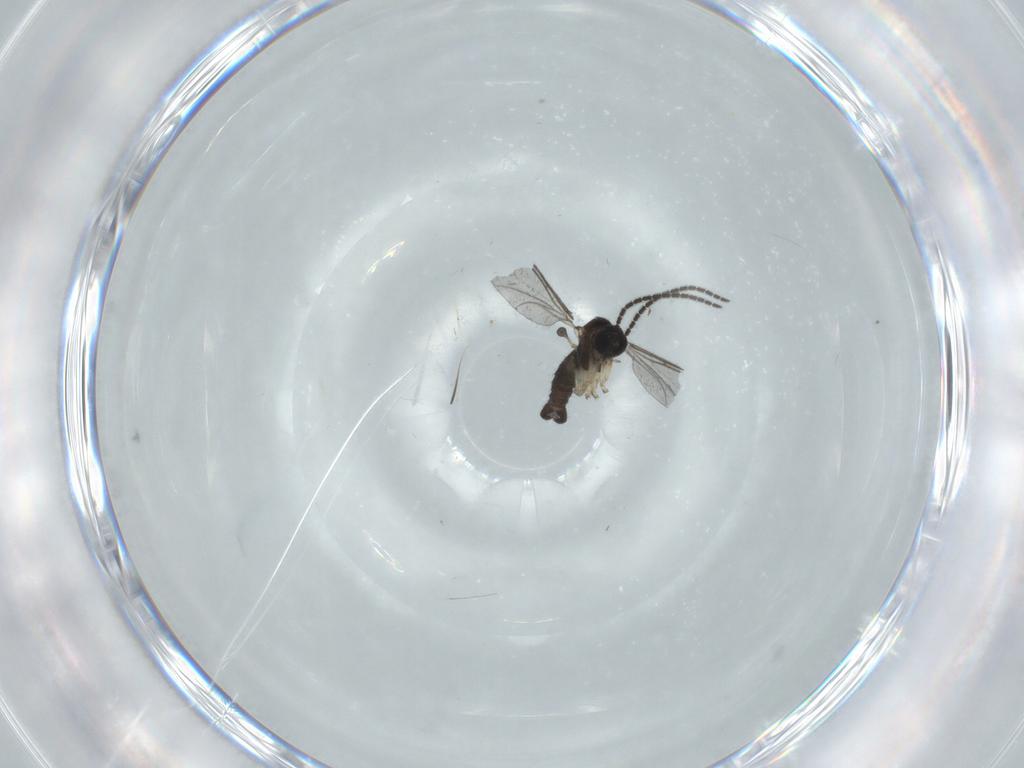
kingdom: Animalia
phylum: Arthropoda
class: Insecta
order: Diptera
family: Sciaridae
